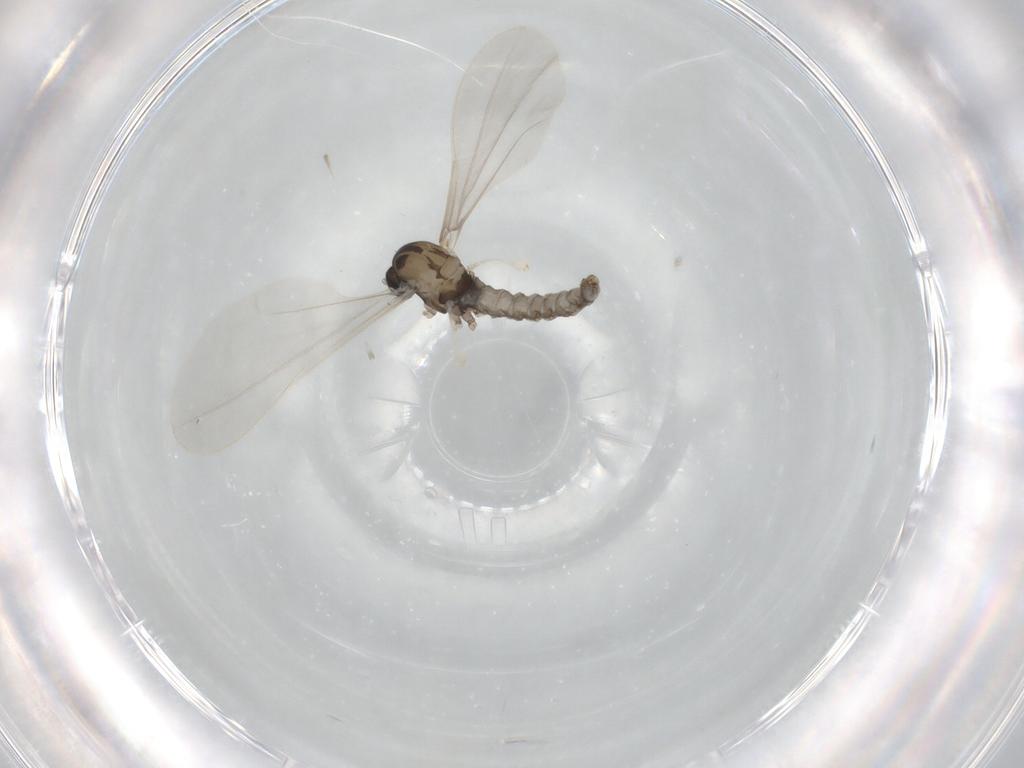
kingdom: Animalia
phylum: Arthropoda
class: Insecta
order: Diptera
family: Cecidomyiidae
